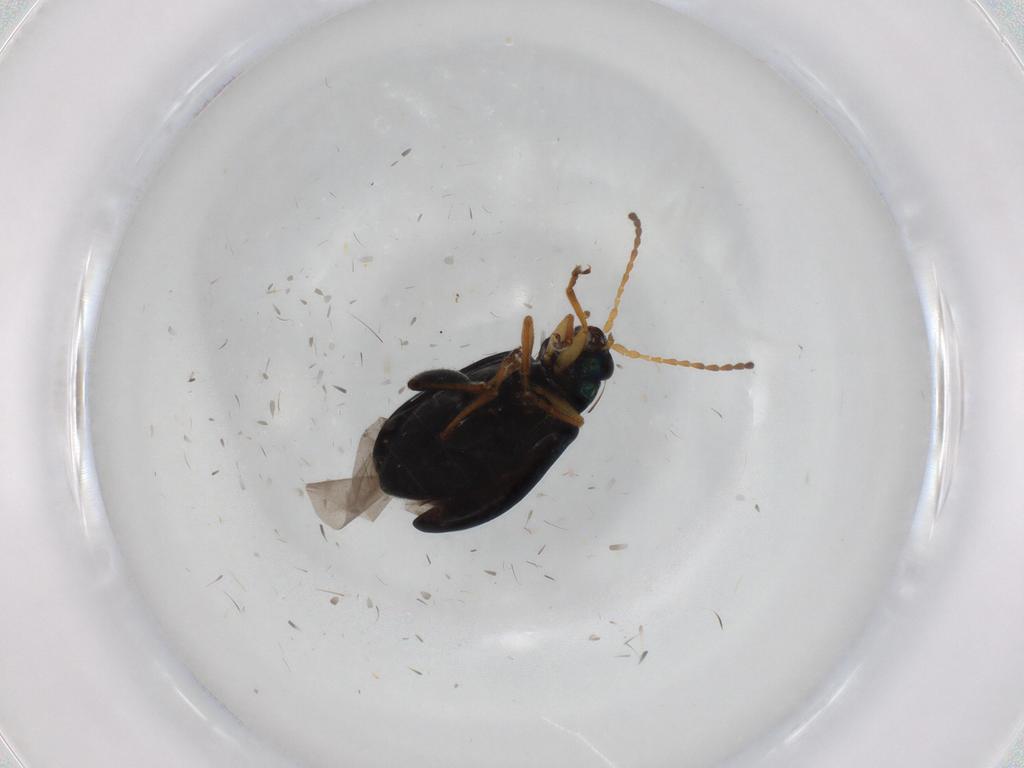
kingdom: Animalia
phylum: Arthropoda
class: Insecta
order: Coleoptera
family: Chrysomelidae
